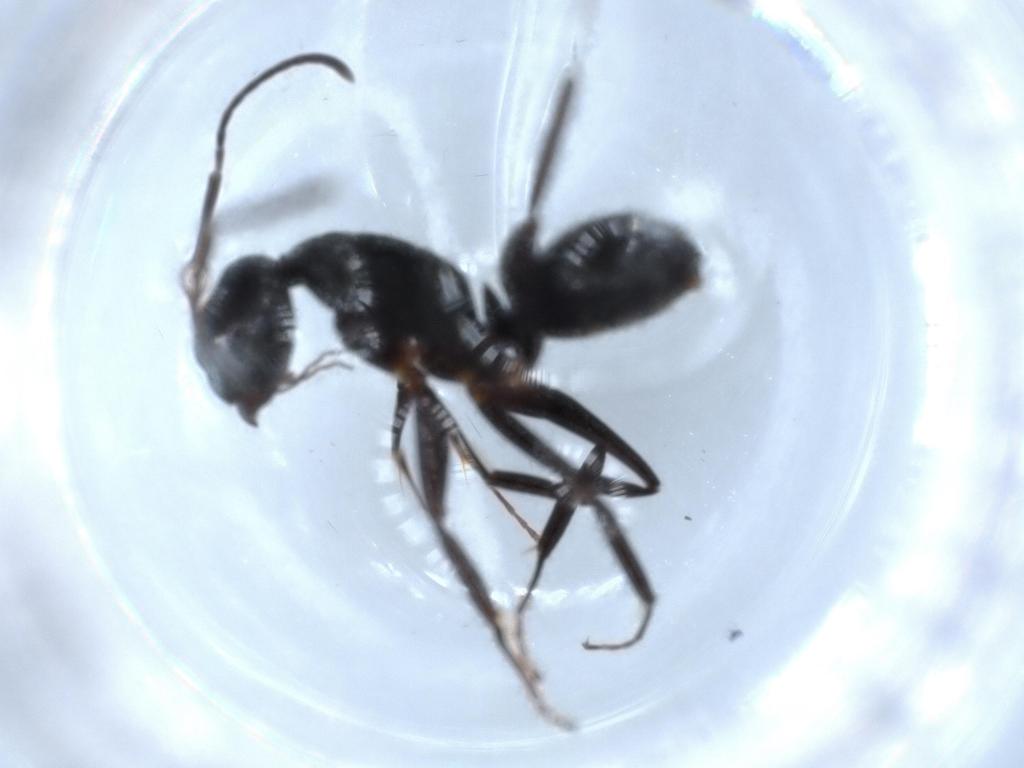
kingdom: Animalia
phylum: Arthropoda
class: Insecta
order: Hymenoptera
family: Formicidae
